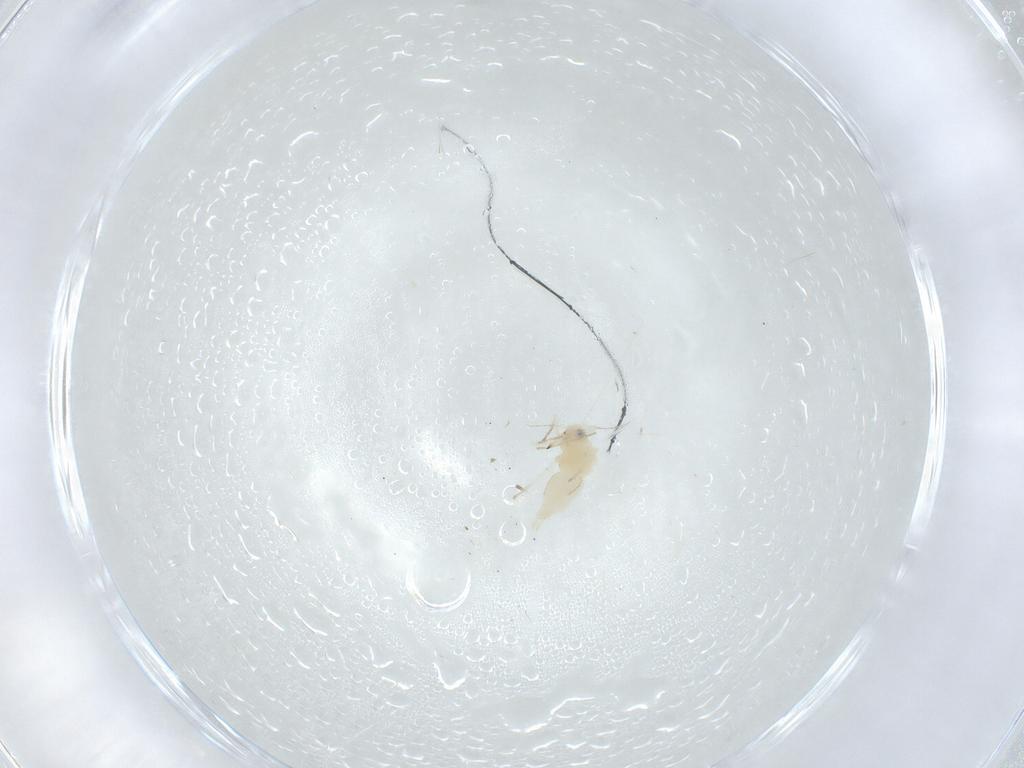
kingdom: Animalia
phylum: Arthropoda
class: Insecta
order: Hemiptera
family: Aleyrodidae
